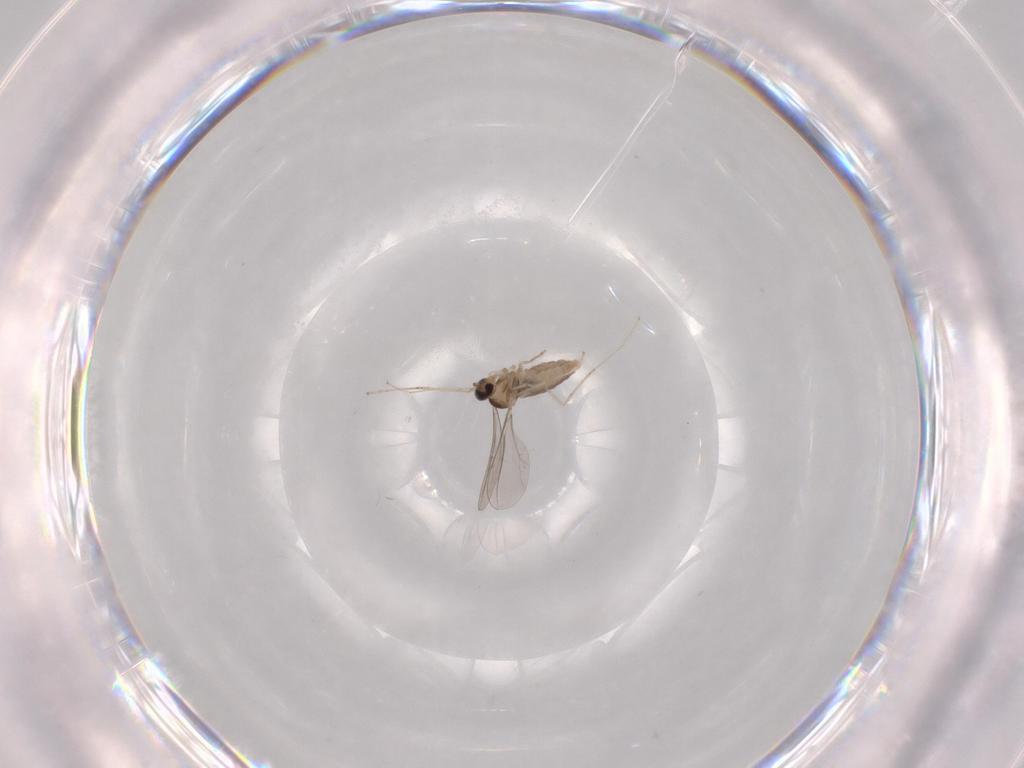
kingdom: Animalia
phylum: Arthropoda
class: Insecta
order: Diptera
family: Cecidomyiidae
